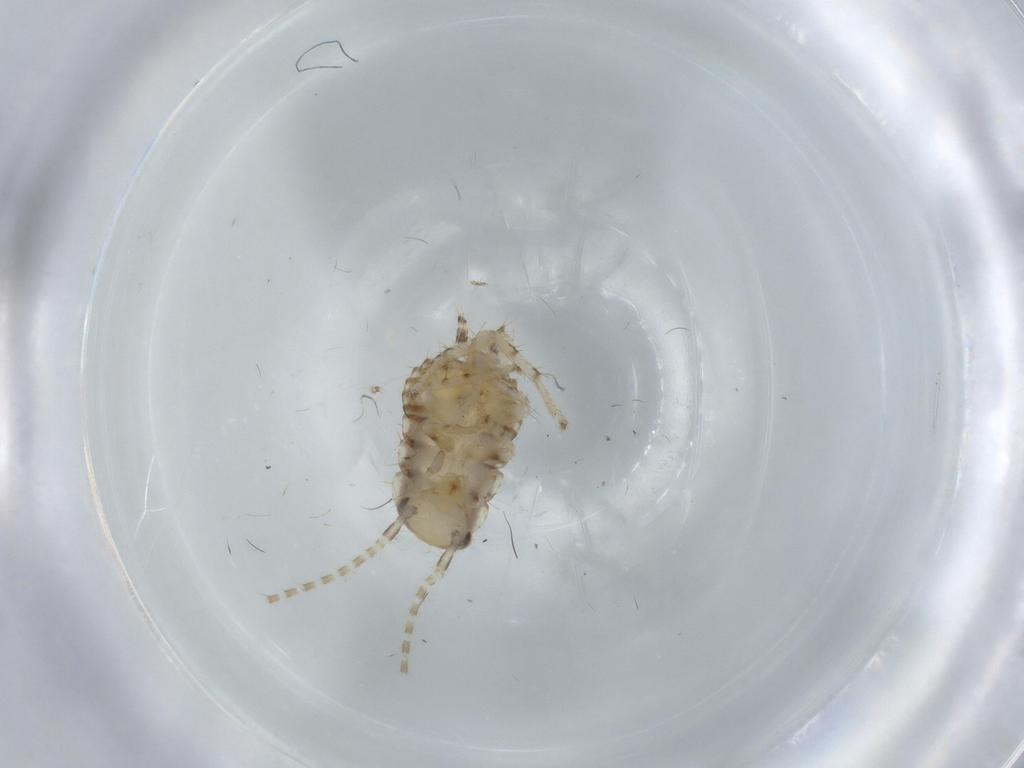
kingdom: Animalia
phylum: Arthropoda
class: Insecta
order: Blattodea
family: Ectobiidae
